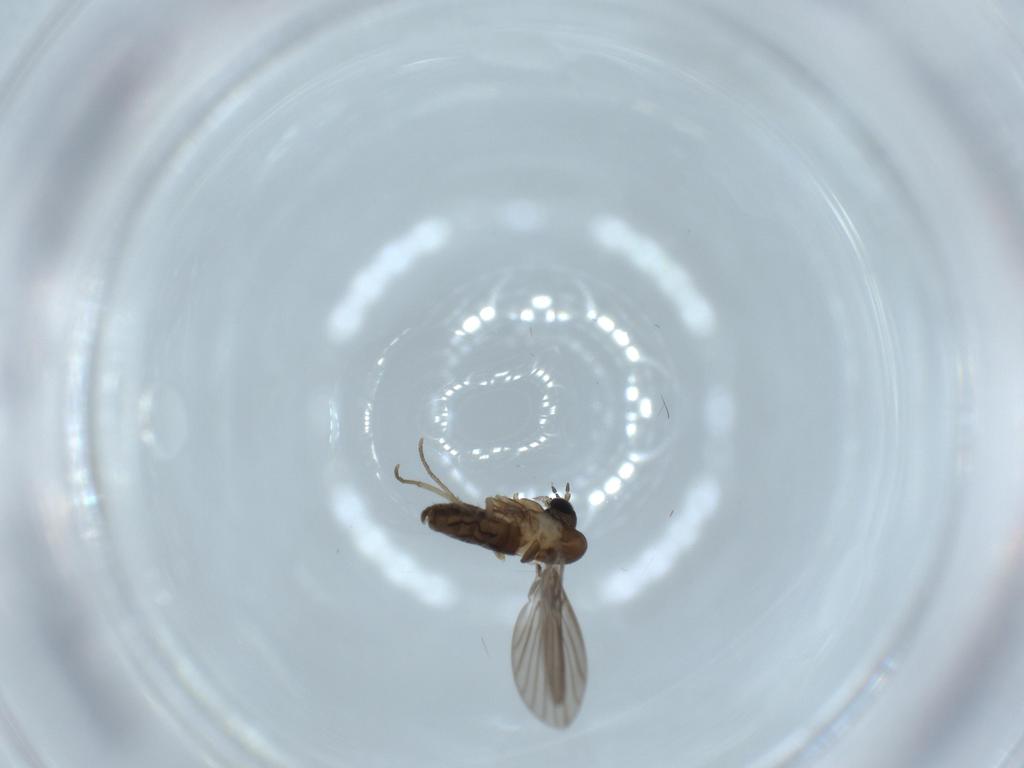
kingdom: Animalia
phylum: Arthropoda
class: Insecta
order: Diptera
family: Psychodidae
